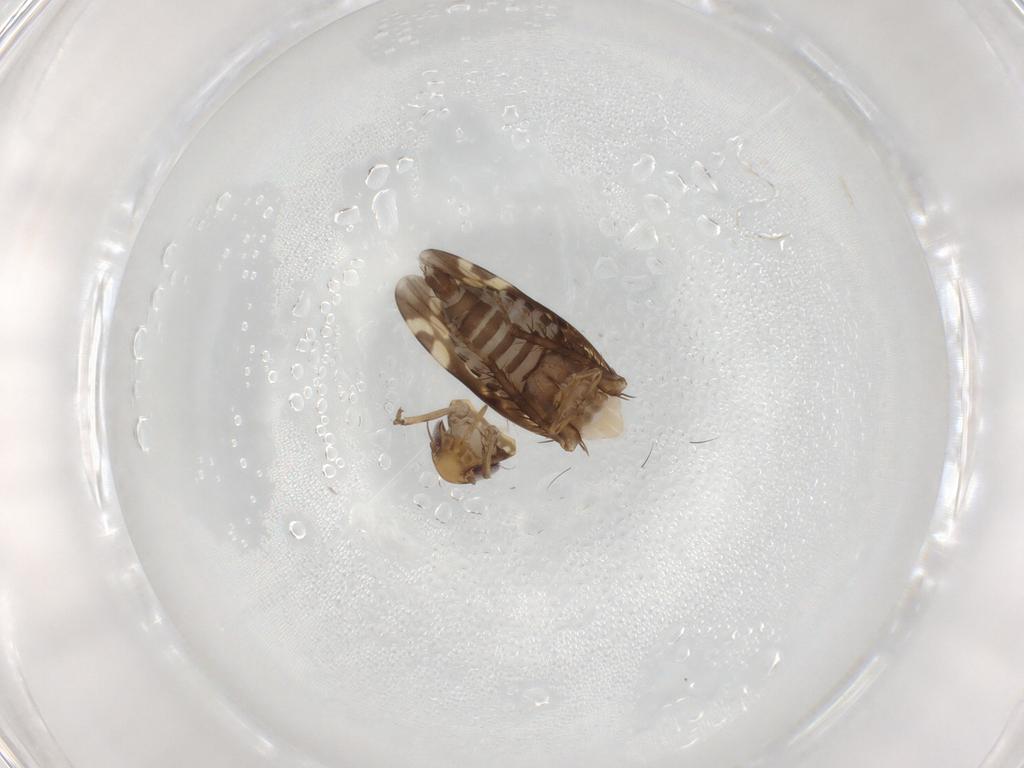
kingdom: Animalia
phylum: Arthropoda
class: Insecta
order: Hemiptera
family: Cicadellidae
